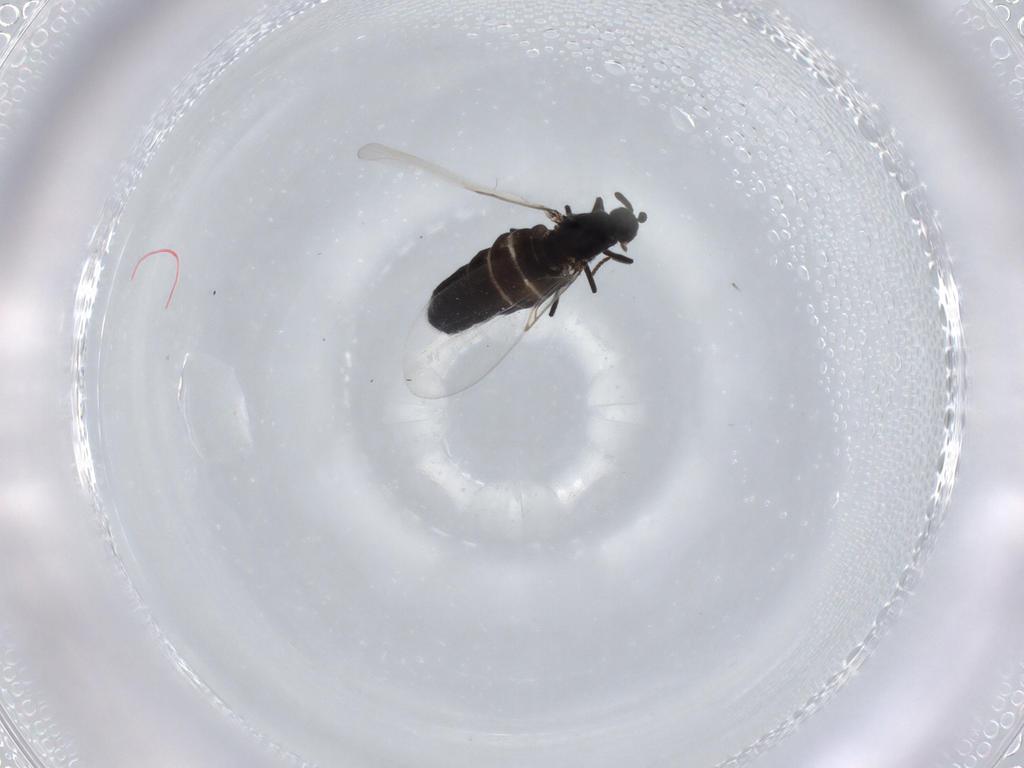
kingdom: Animalia
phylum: Arthropoda
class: Insecta
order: Diptera
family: Scatopsidae
